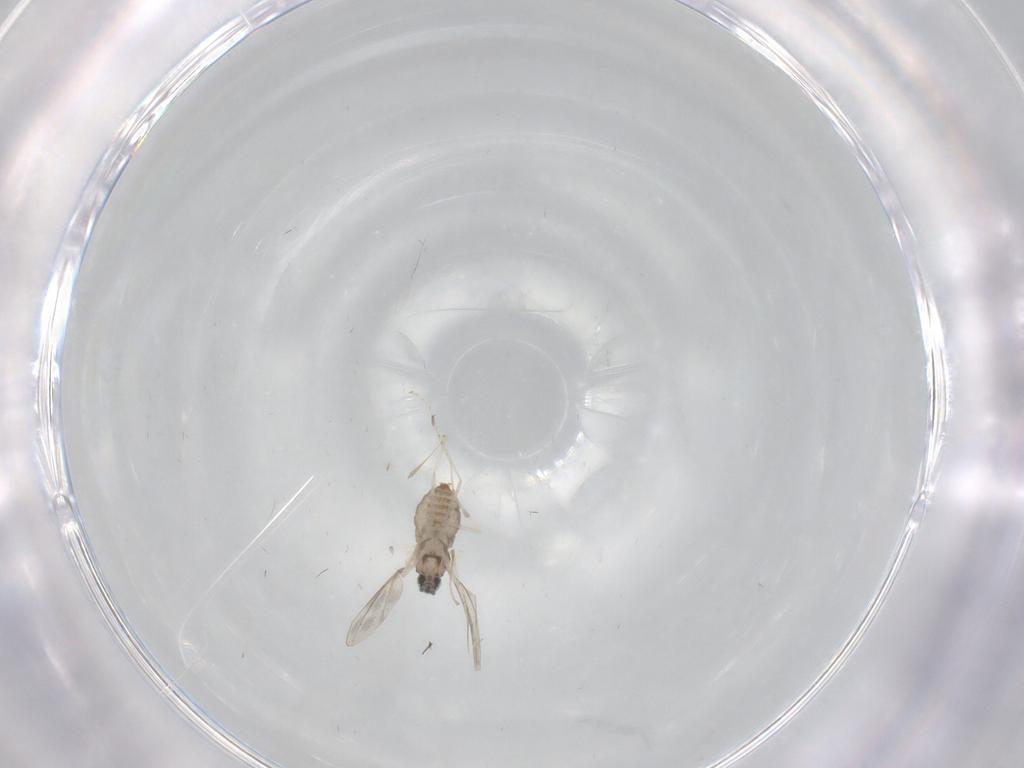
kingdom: Animalia
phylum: Arthropoda
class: Insecta
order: Diptera
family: Cecidomyiidae
